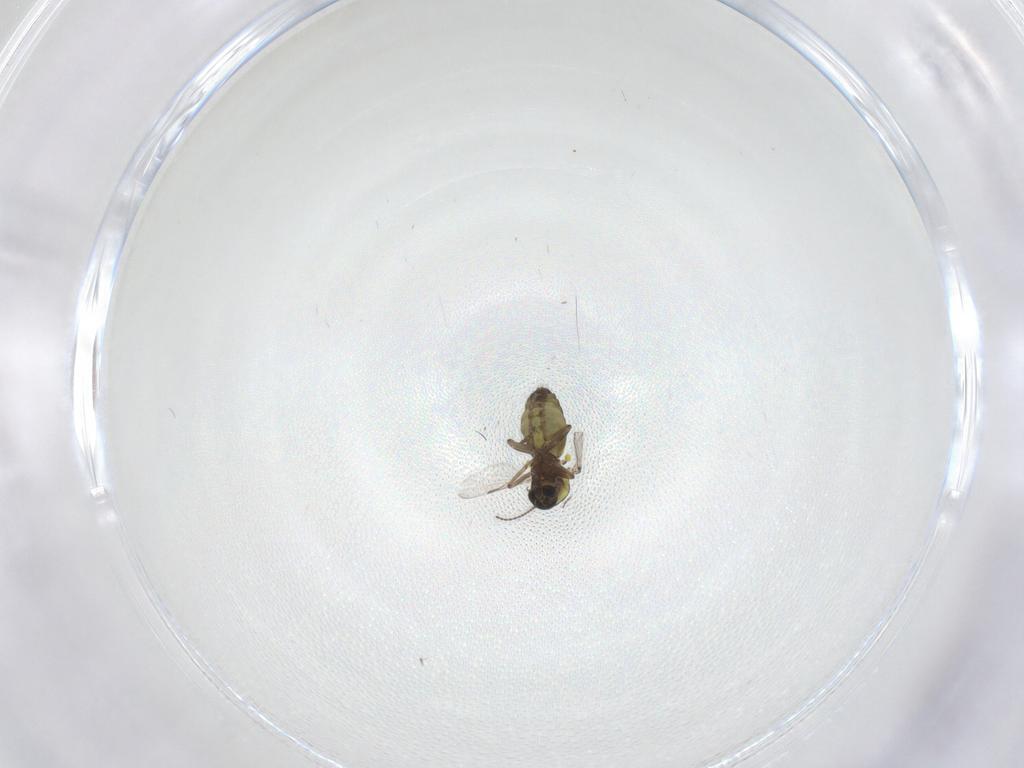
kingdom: Animalia
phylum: Arthropoda
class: Insecta
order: Diptera
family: Ceratopogonidae
